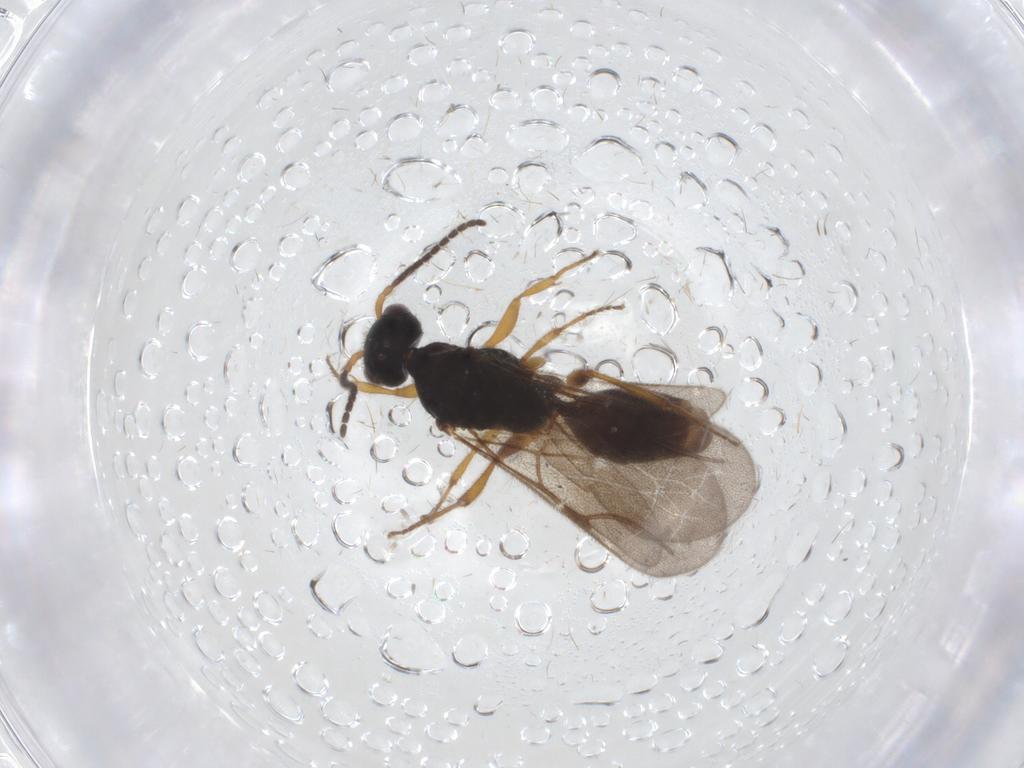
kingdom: Animalia
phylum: Arthropoda
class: Insecta
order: Hymenoptera
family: Bethylidae
